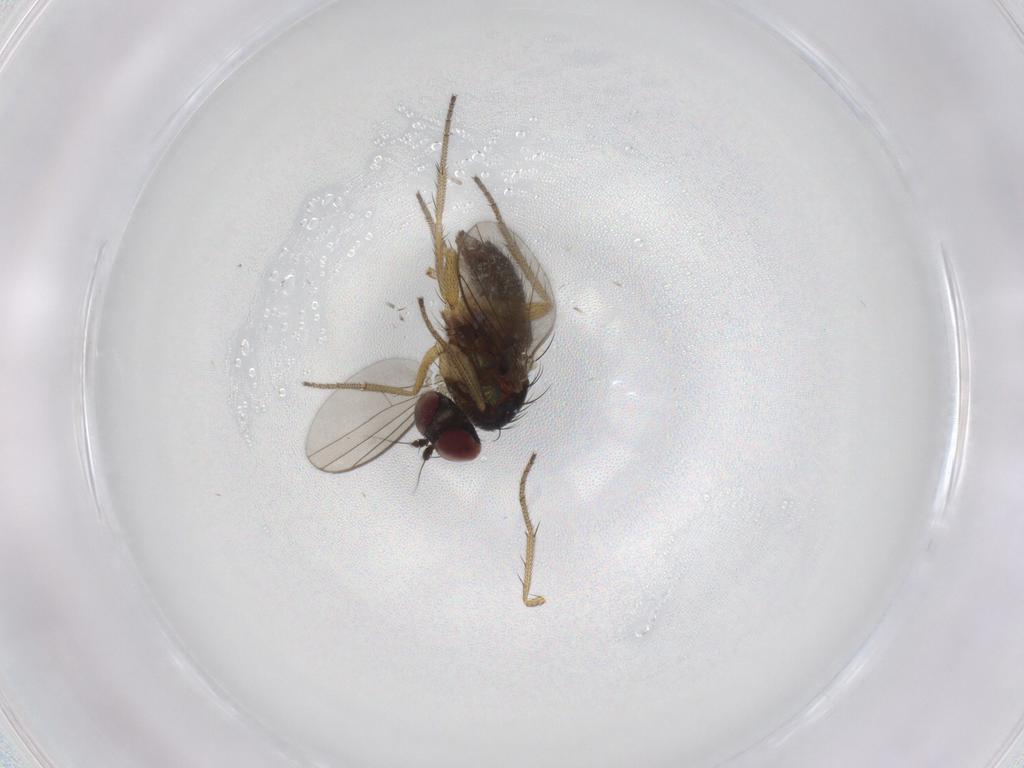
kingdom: Animalia
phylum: Arthropoda
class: Insecta
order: Diptera
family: Dolichopodidae
